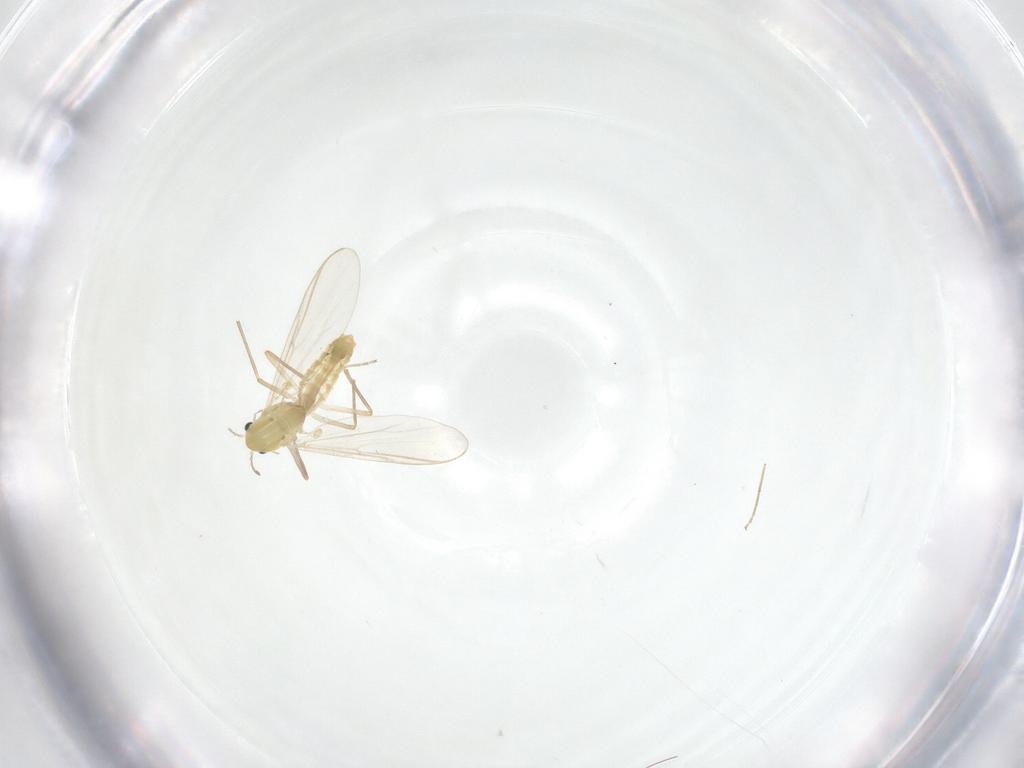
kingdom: Animalia
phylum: Arthropoda
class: Insecta
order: Diptera
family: Chironomidae
